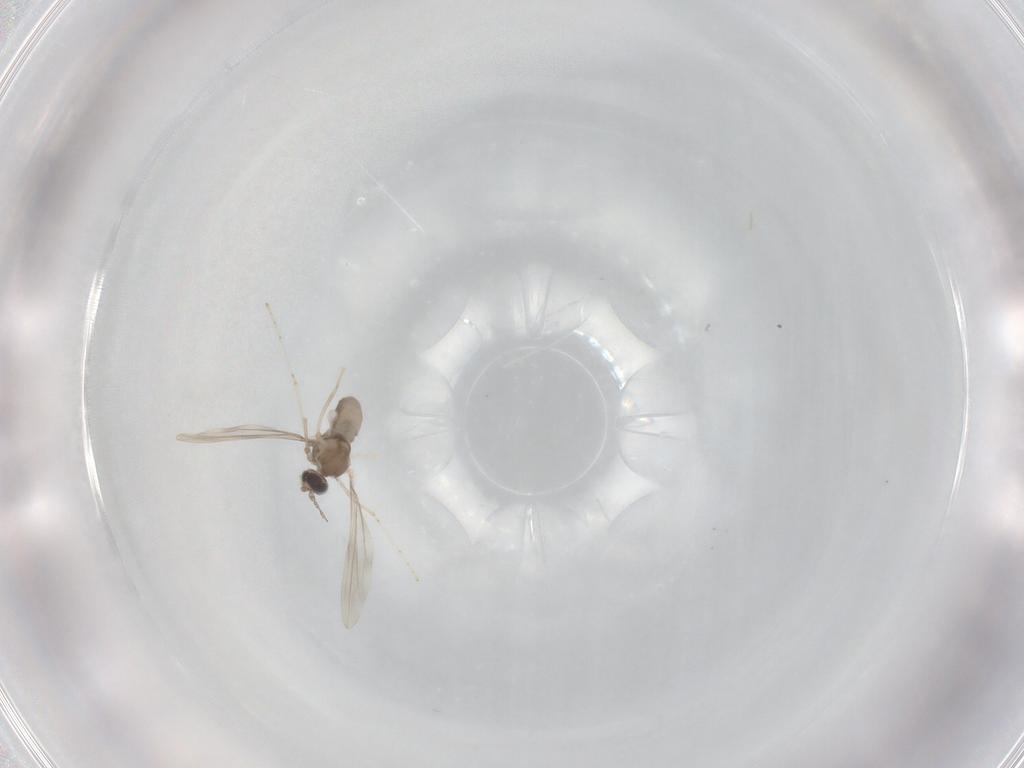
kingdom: Animalia
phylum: Arthropoda
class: Insecta
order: Diptera
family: Cecidomyiidae
